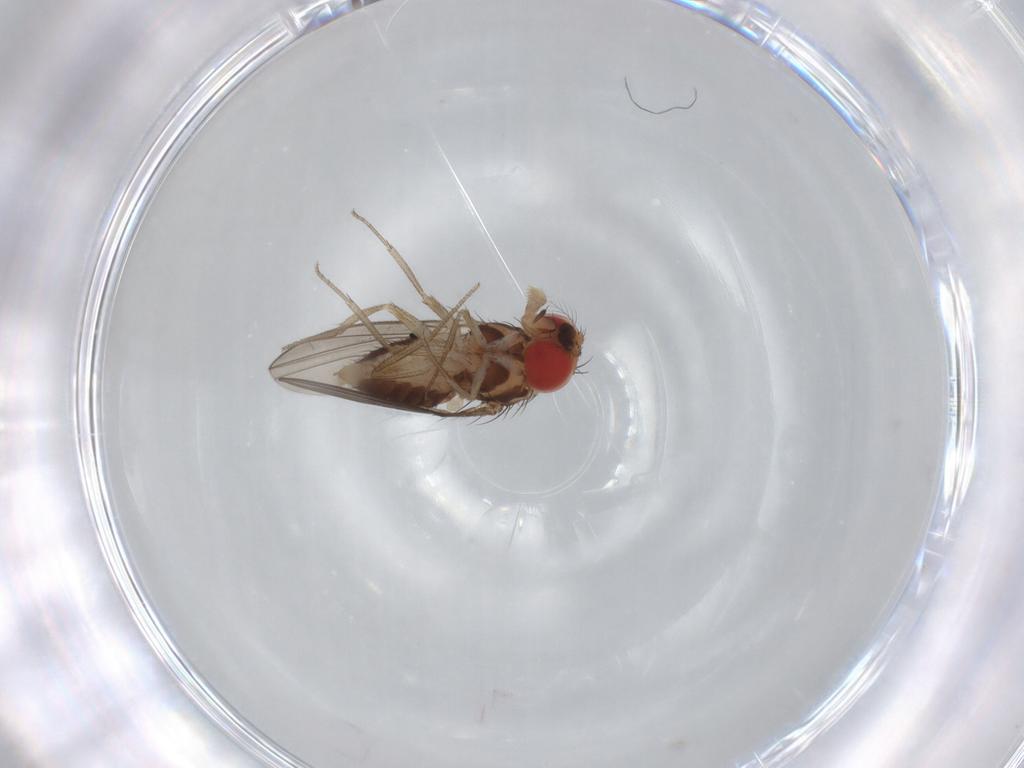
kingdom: Animalia
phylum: Arthropoda
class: Insecta
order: Diptera
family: Drosophilidae
